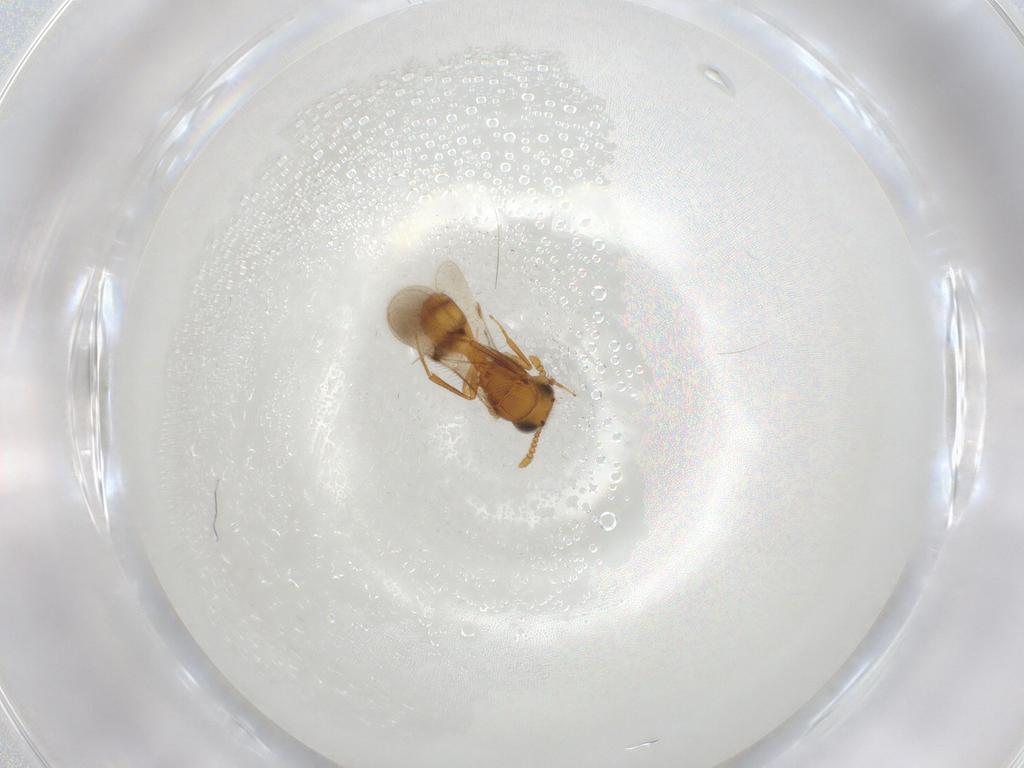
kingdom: Animalia
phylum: Arthropoda
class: Insecta
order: Hymenoptera
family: Scelionidae
